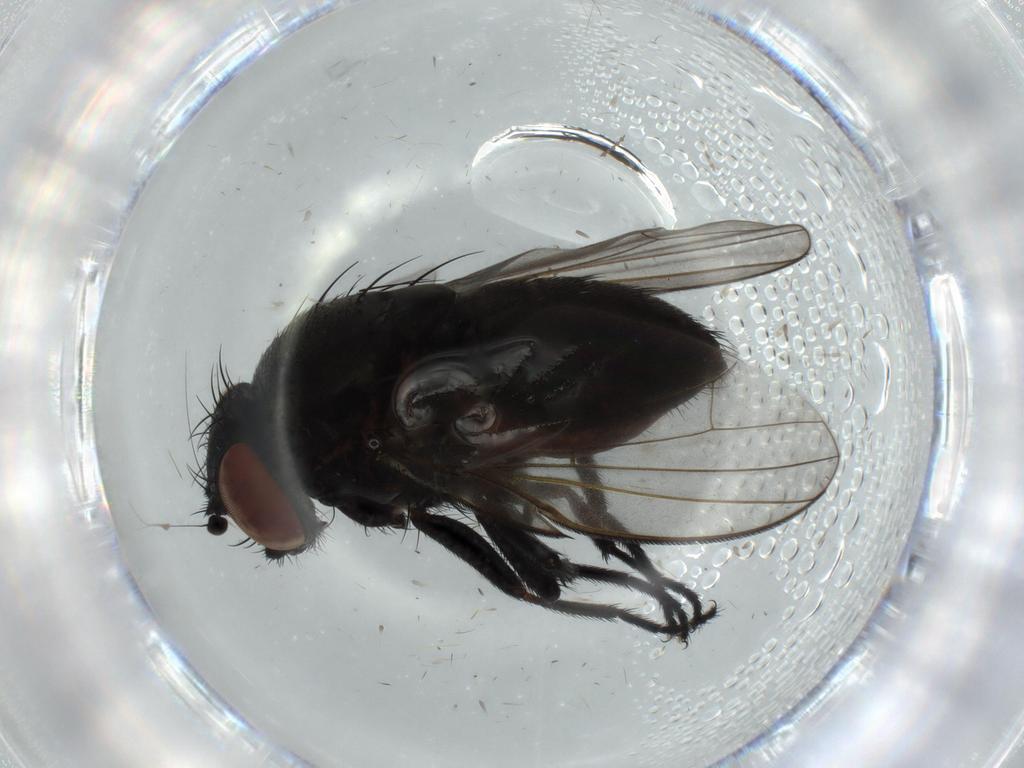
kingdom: Animalia
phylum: Arthropoda
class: Insecta
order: Diptera
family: Milichiidae
